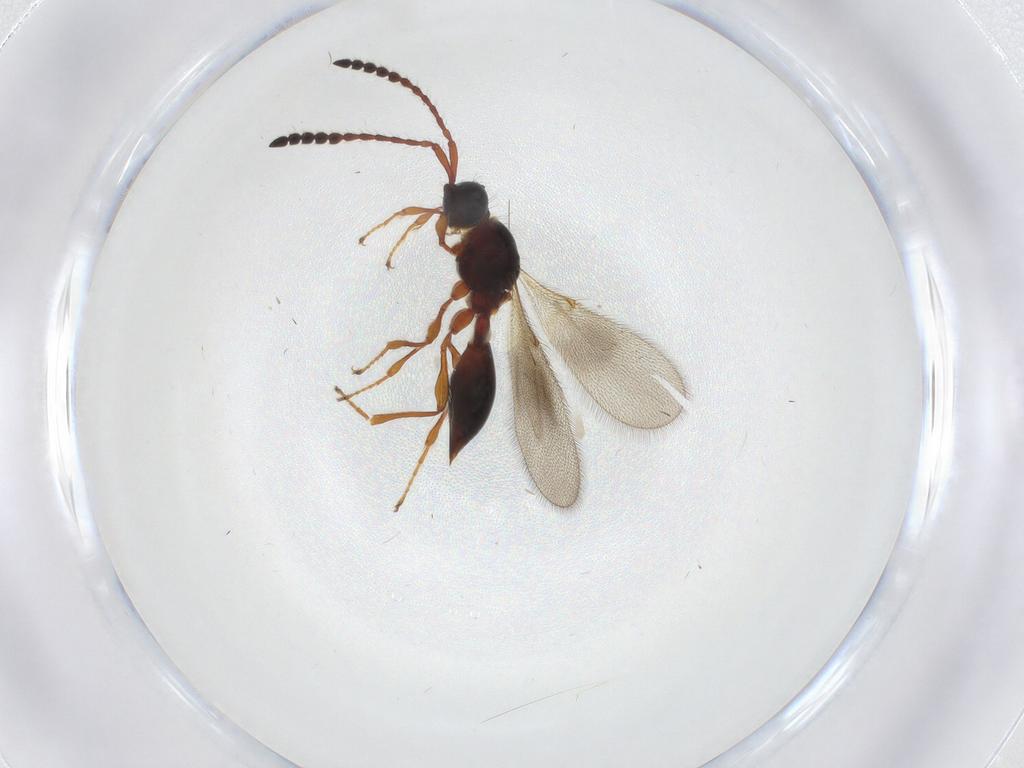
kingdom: Animalia
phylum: Arthropoda
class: Insecta
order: Hymenoptera
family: Diapriidae
